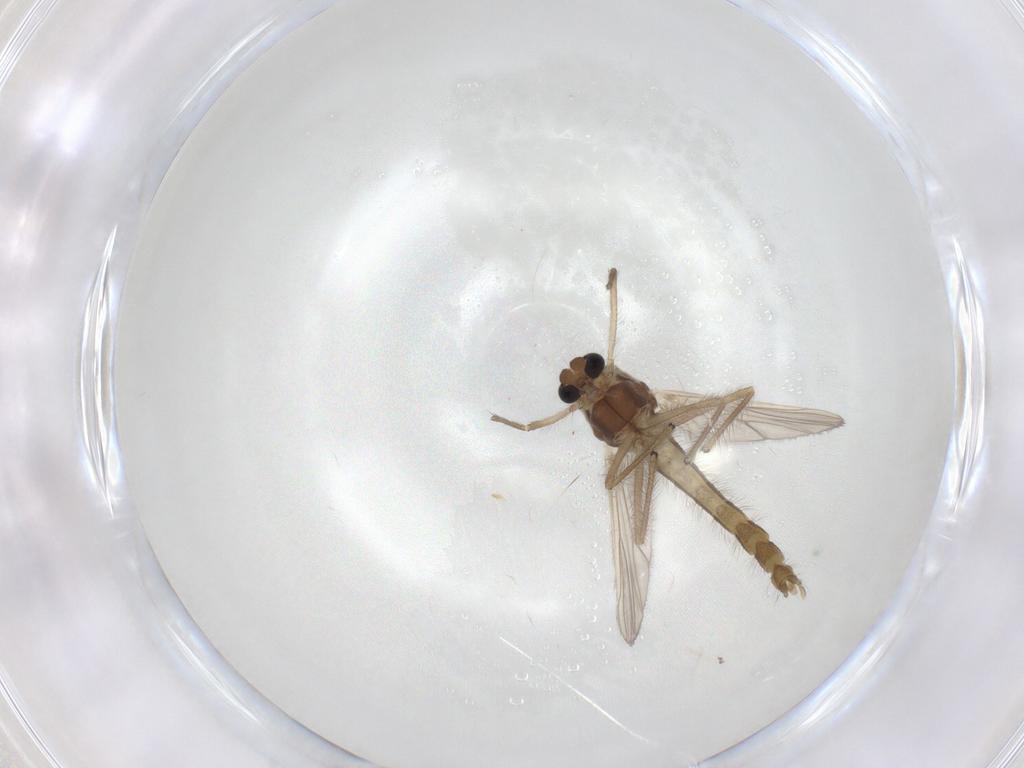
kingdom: Animalia
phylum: Arthropoda
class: Insecta
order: Diptera
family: Chironomidae
